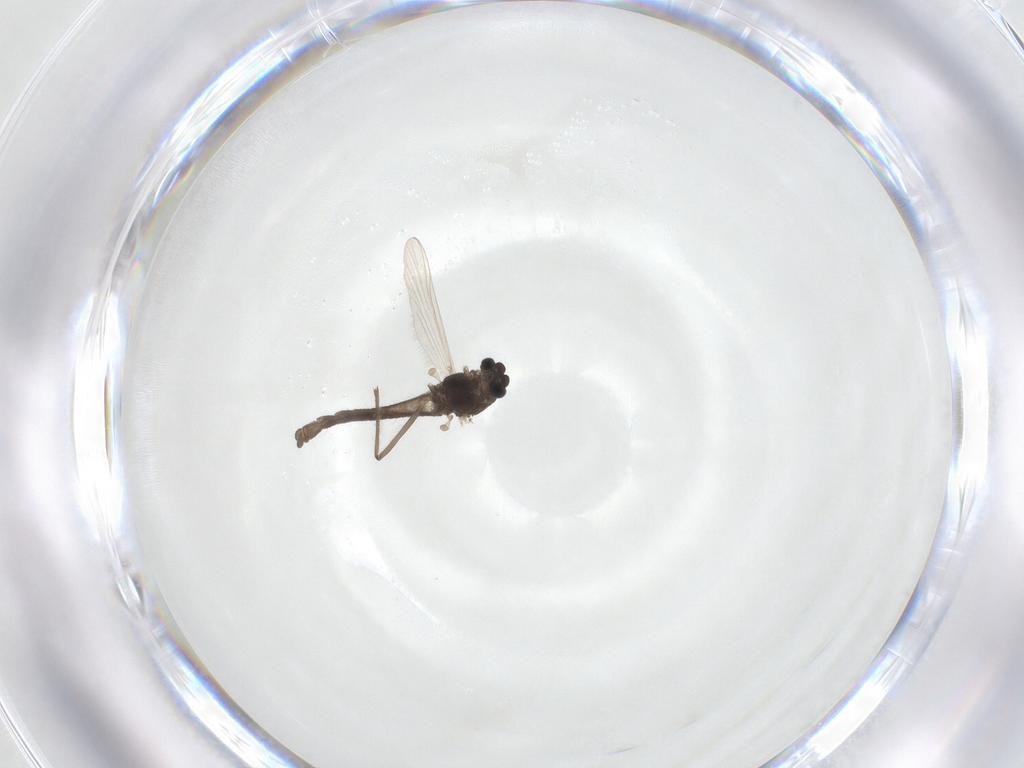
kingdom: Animalia
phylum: Arthropoda
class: Insecta
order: Diptera
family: Chironomidae
